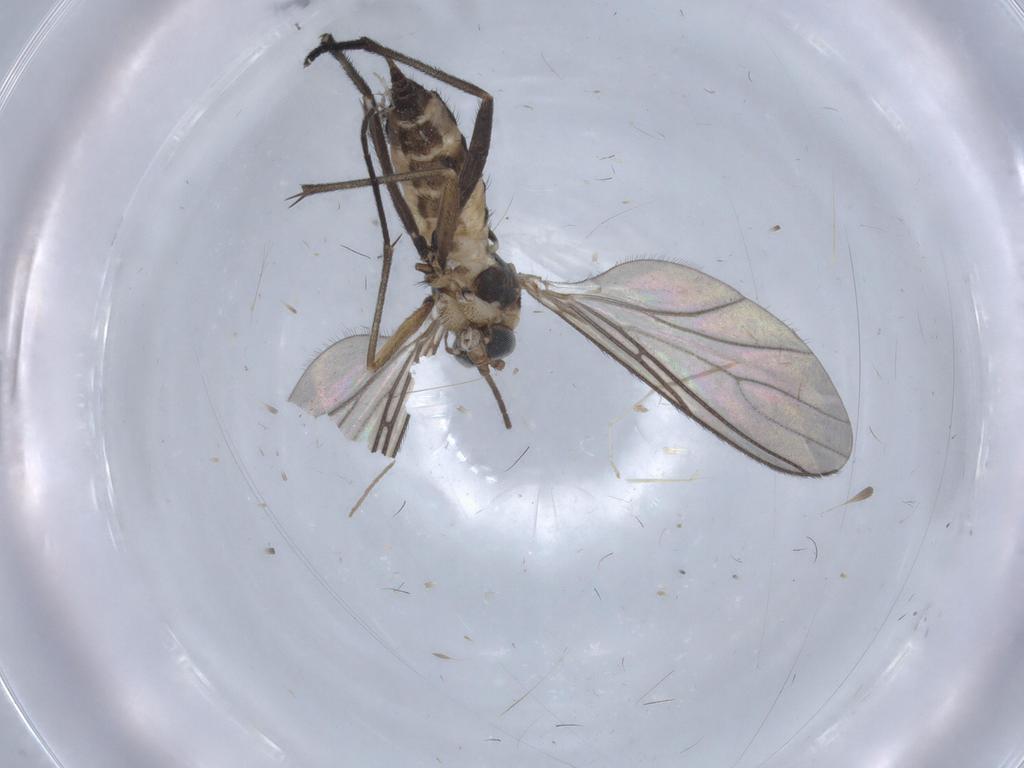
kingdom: Animalia
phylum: Arthropoda
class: Insecta
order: Diptera
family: Sciaridae
